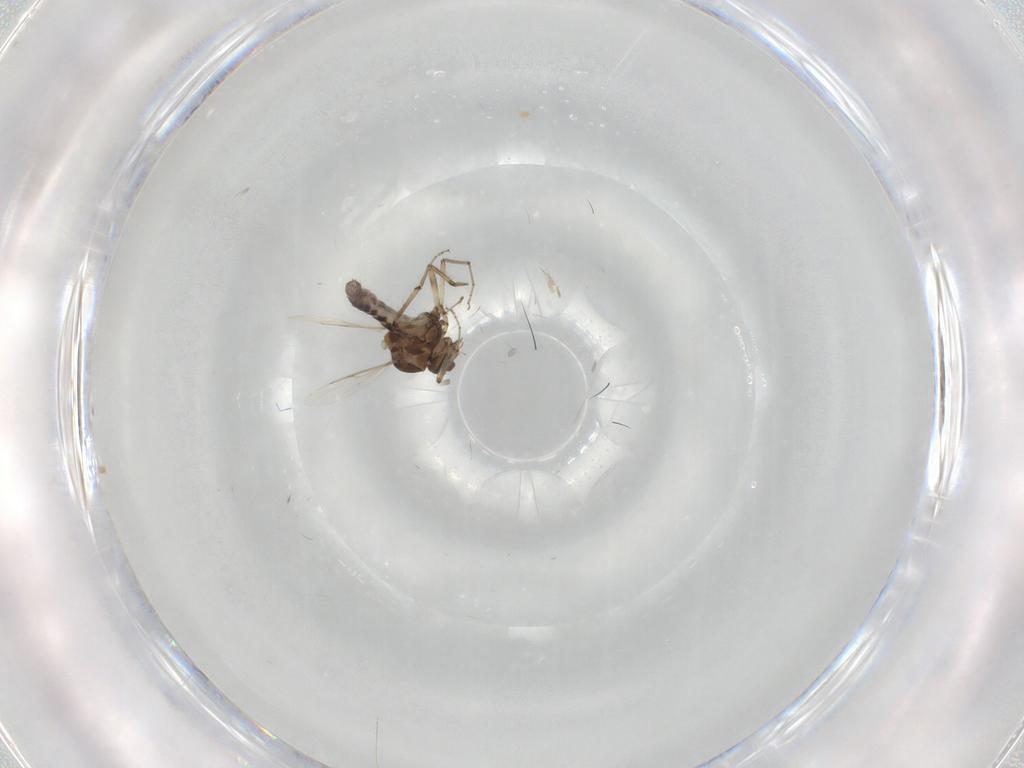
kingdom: Animalia
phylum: Arthropoda
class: Insecta
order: Diptera
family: Ceratopogonidae
